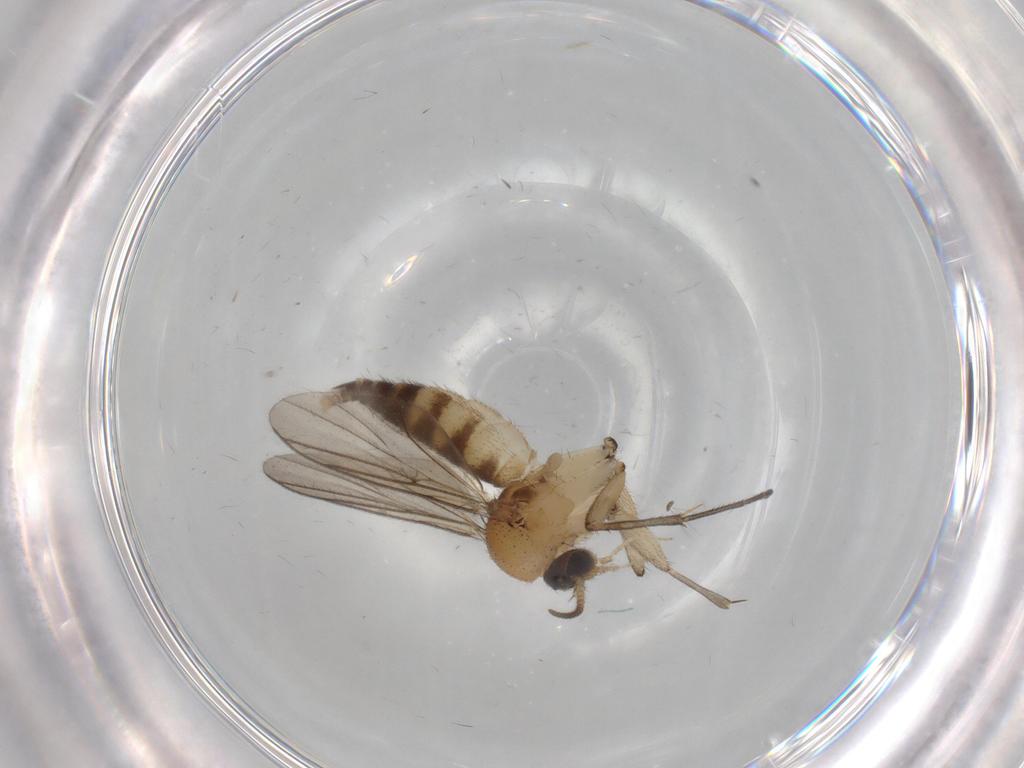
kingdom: Animalia
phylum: Arthropoda
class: Insecta
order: Diptera
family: Chironomidae
